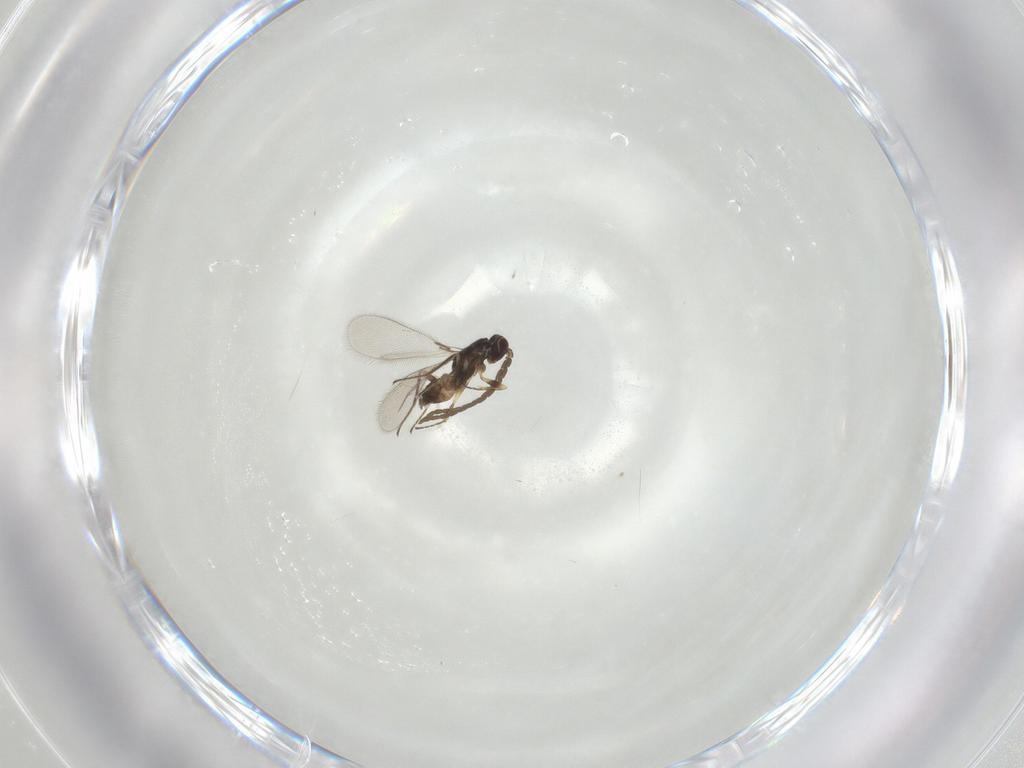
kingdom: Animalia
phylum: Arthropoda
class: Insecta
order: Hymenoptera
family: Mymaridae
